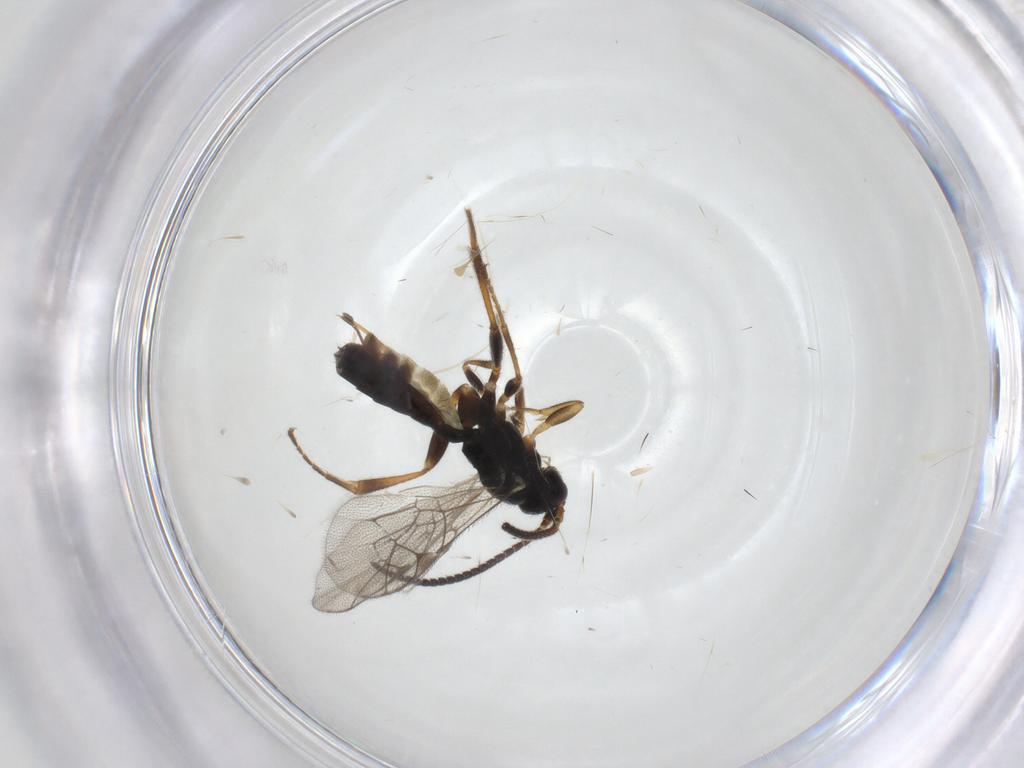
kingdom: Animalia
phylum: Arthropoda
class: Insecta
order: Hymenoptera
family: Ichneumonidae
